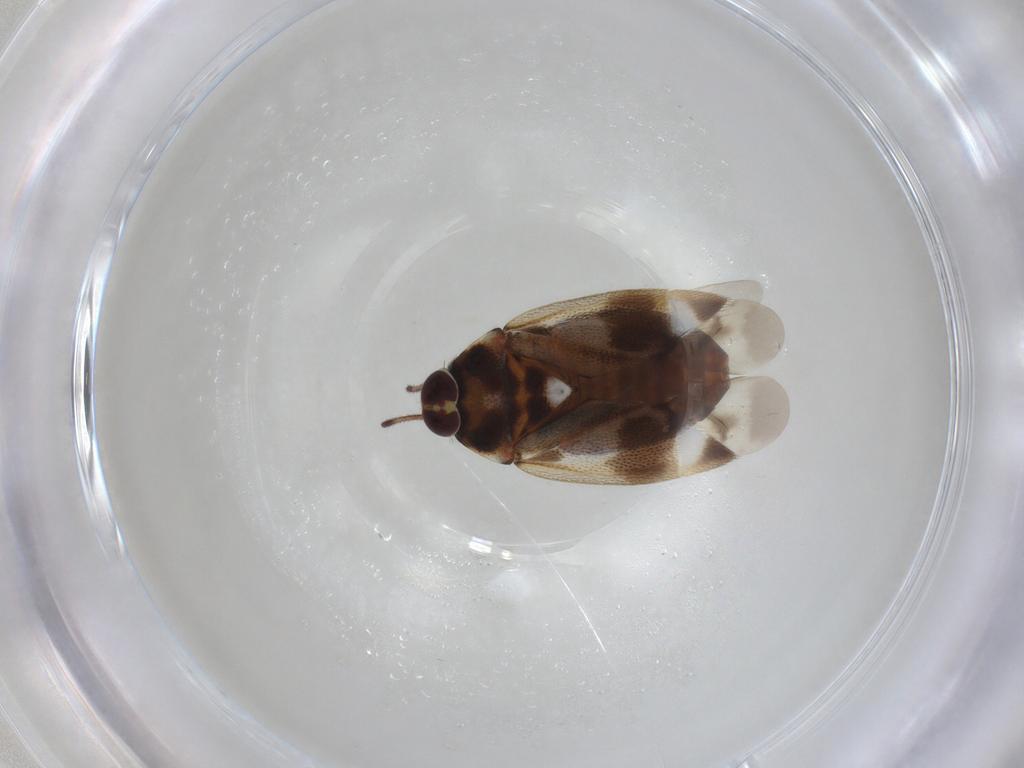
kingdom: Animalia
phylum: Arthropoda
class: Insecta
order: Hemiptera
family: Miridae
